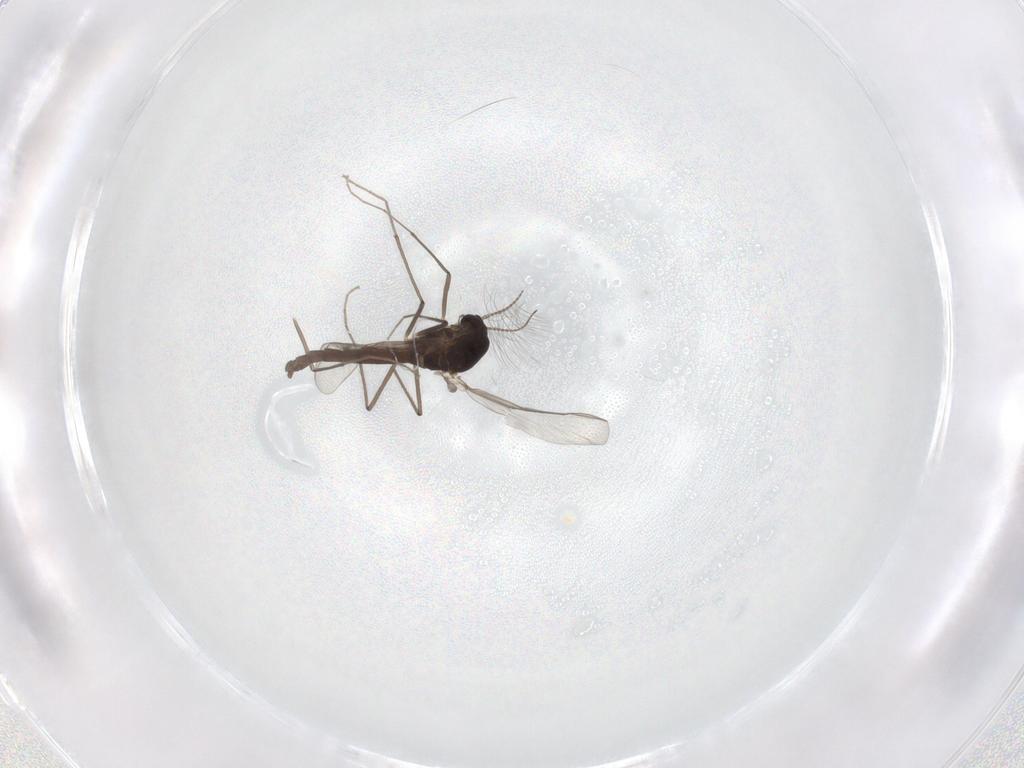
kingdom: Animalia
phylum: Arthropoda
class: Insecta
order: Diptera
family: Chironomidae
